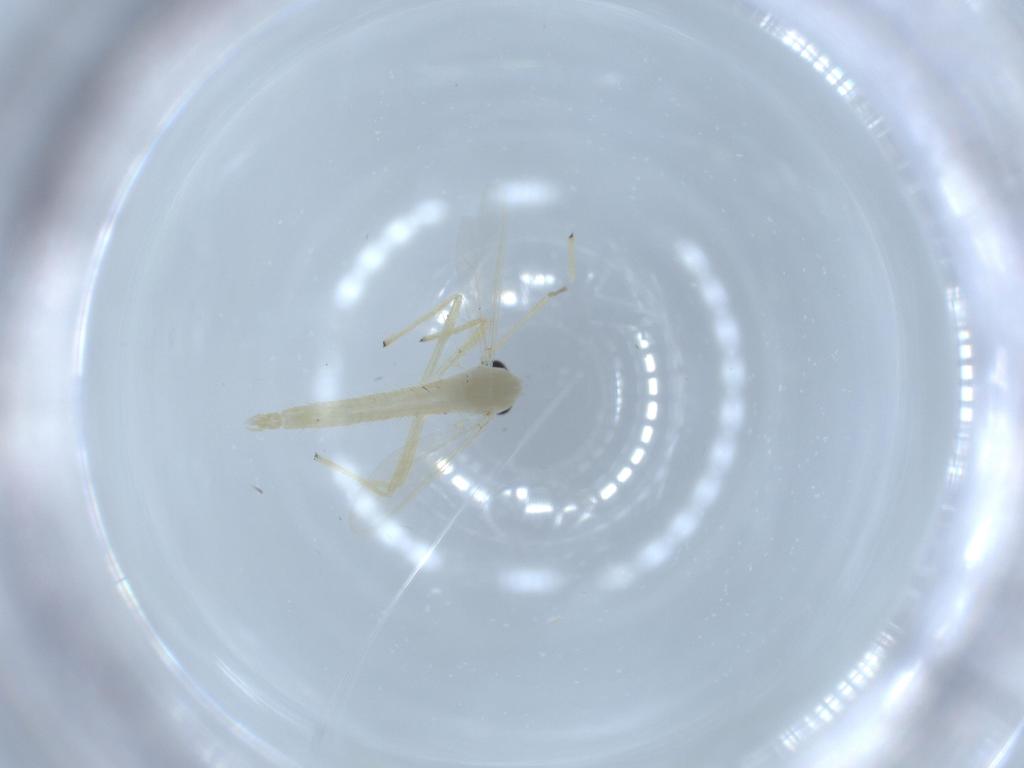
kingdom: Animalia
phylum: Arthropoda
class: Insecta
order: Diptera
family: Chironomidae
